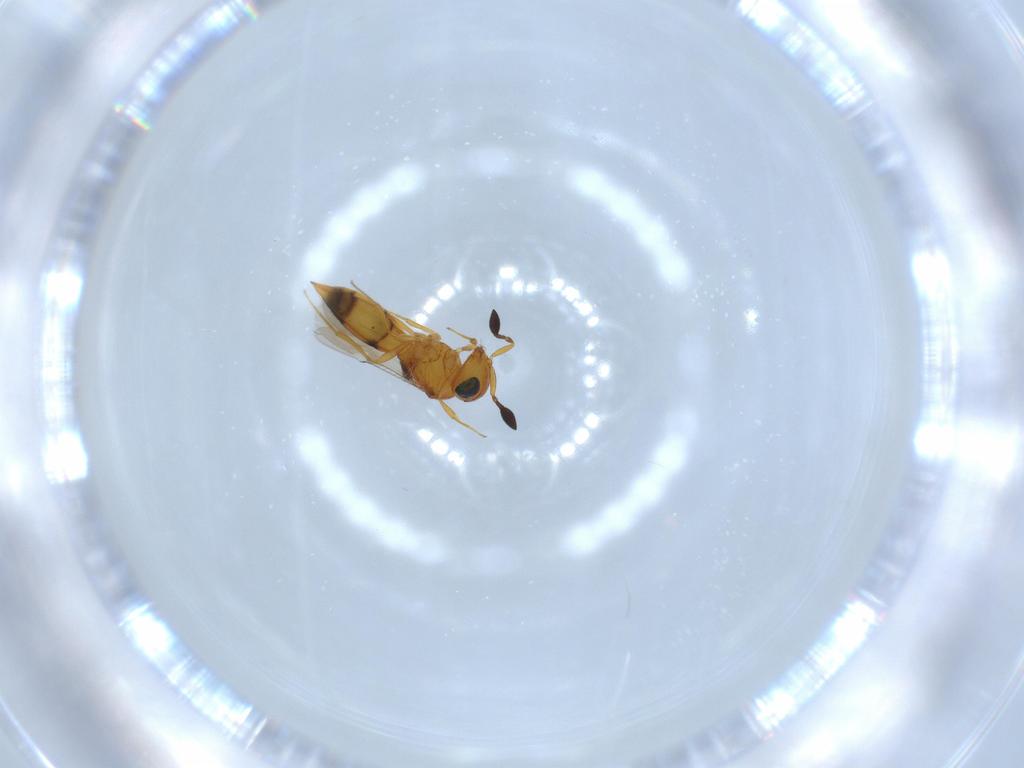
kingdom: Animalia
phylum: Arthropoda
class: Insecta
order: Hymenoptera
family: Scelionidae
